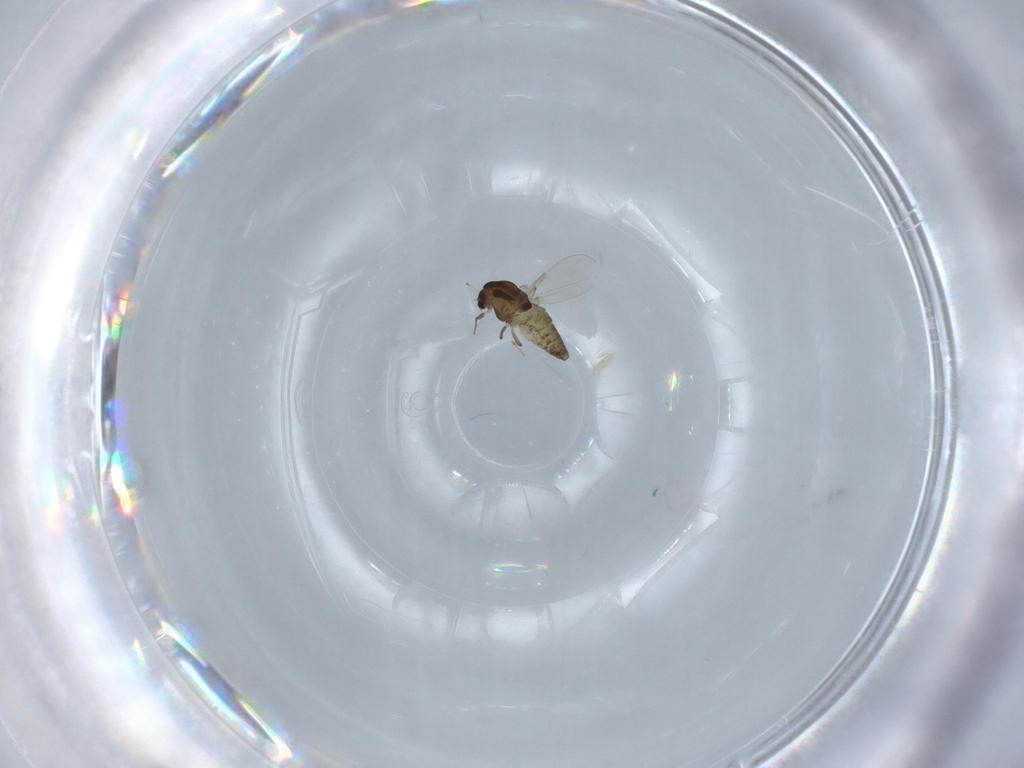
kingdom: Animalia
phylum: Arthropoda
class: Insecta
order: Diptera
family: Chironomidae
